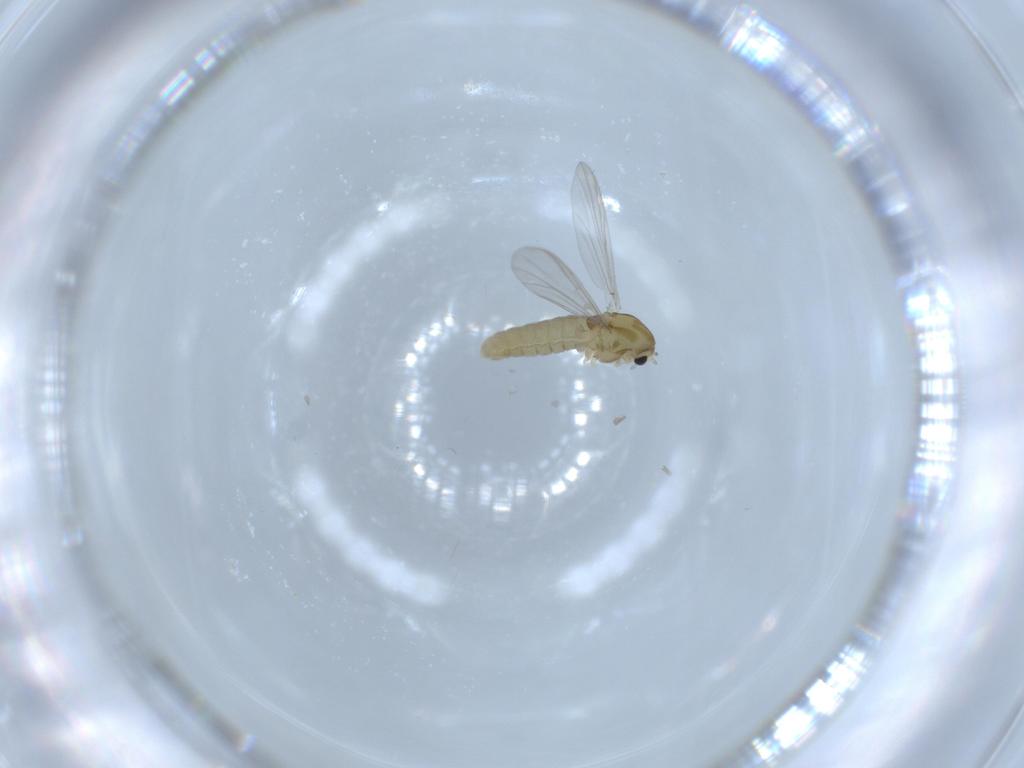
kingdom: Animalia
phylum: Arthropoda
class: Insecta
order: Diptera
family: Chironomidae
